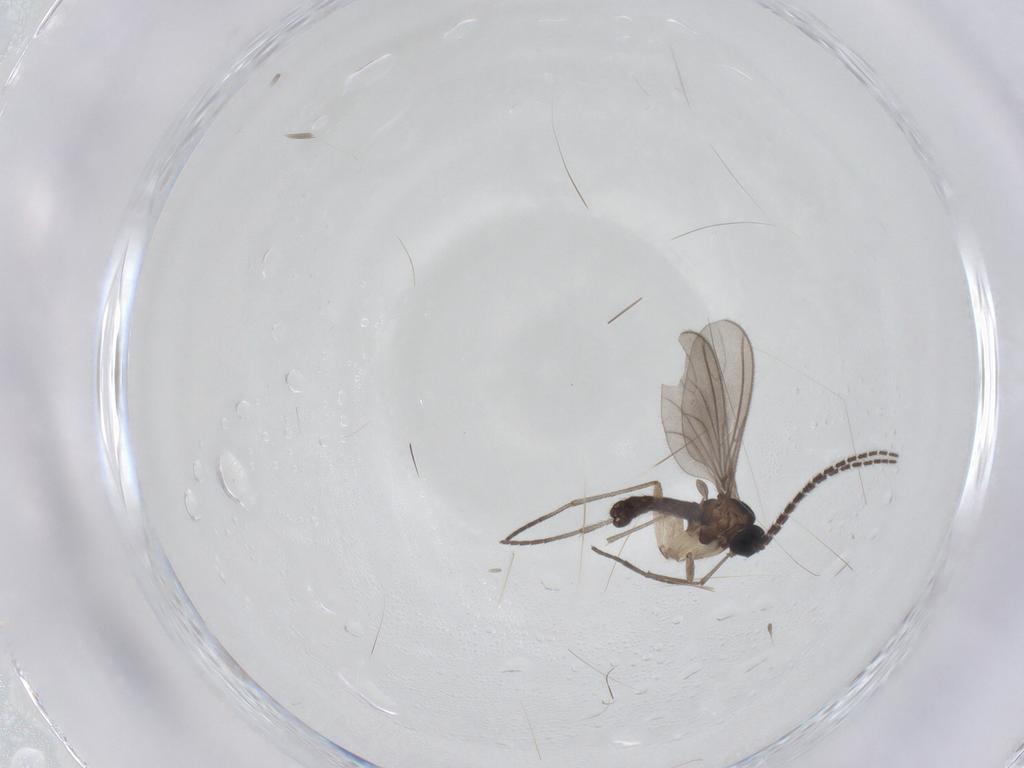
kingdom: Animalia
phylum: Arthropoda
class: Insecta
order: Diptera
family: Sciaridae
